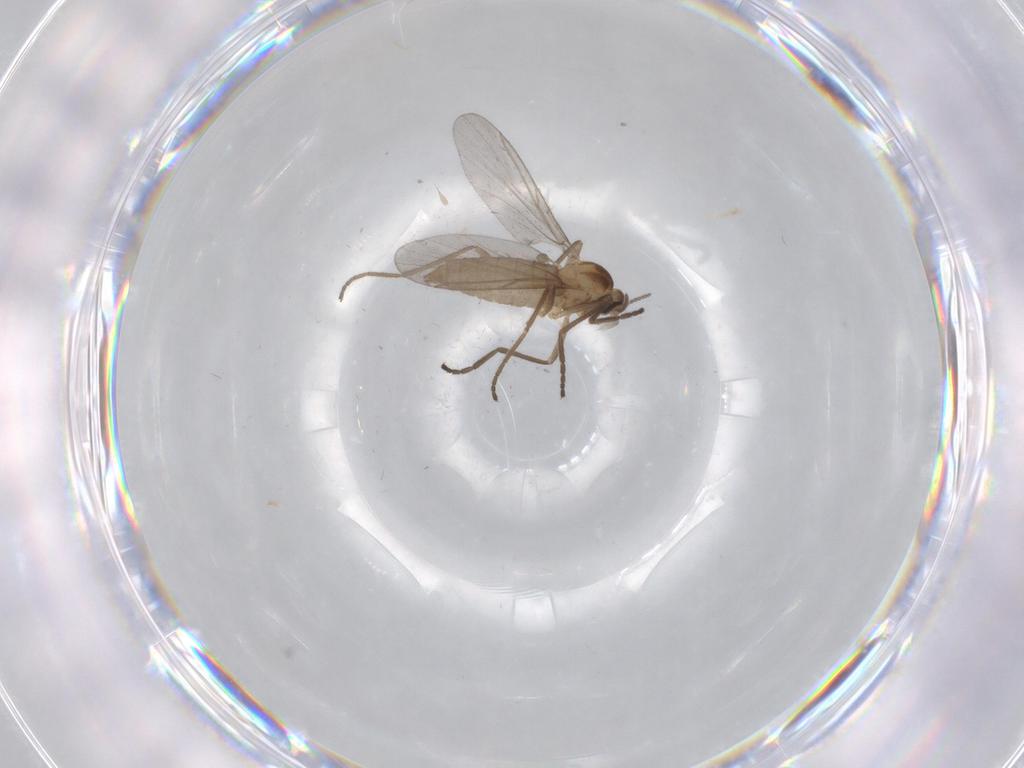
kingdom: Animalia
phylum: Arthropoda
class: Insecta
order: Diptera
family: Cecidomyiidae
